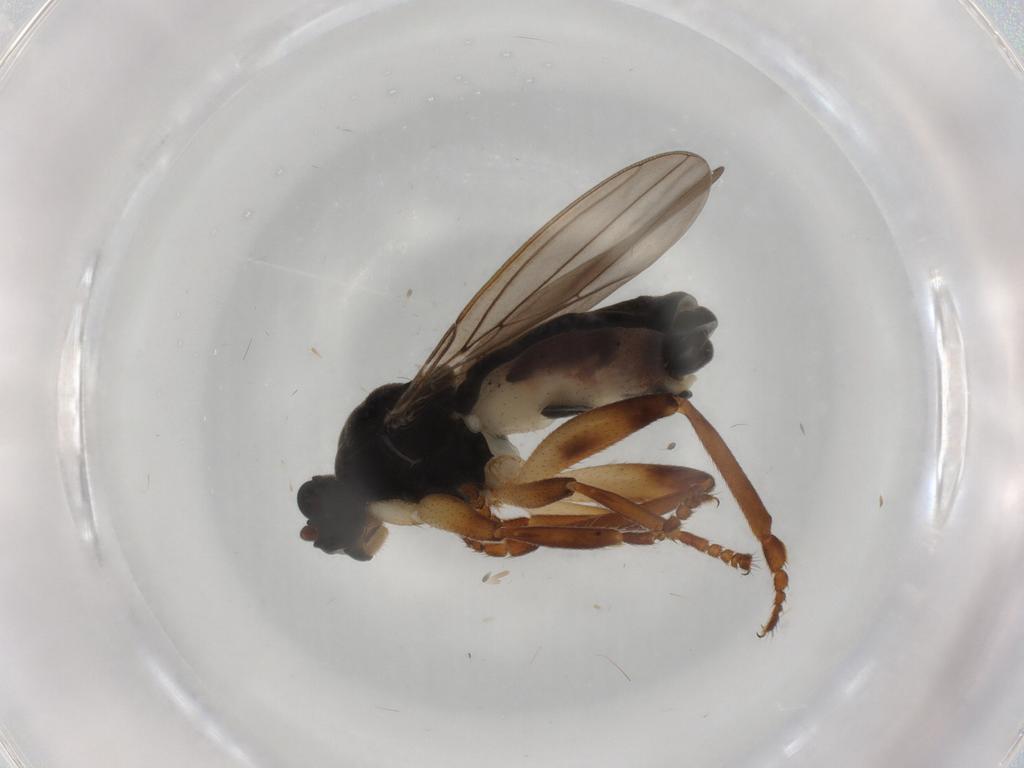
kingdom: Animalia
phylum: Arthropoda
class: Insecta
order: Diptera
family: Sphaeroceridae
